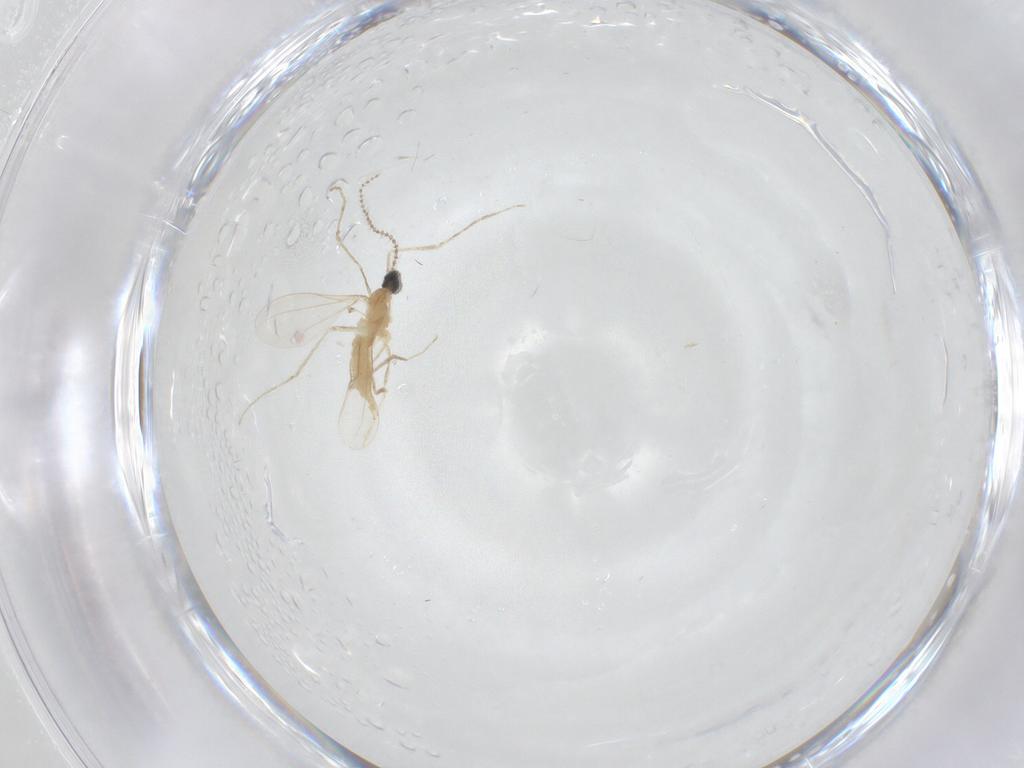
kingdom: Animalia
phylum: Arthropoda
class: Insecta
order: Diptera
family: Cecidomyiidae
